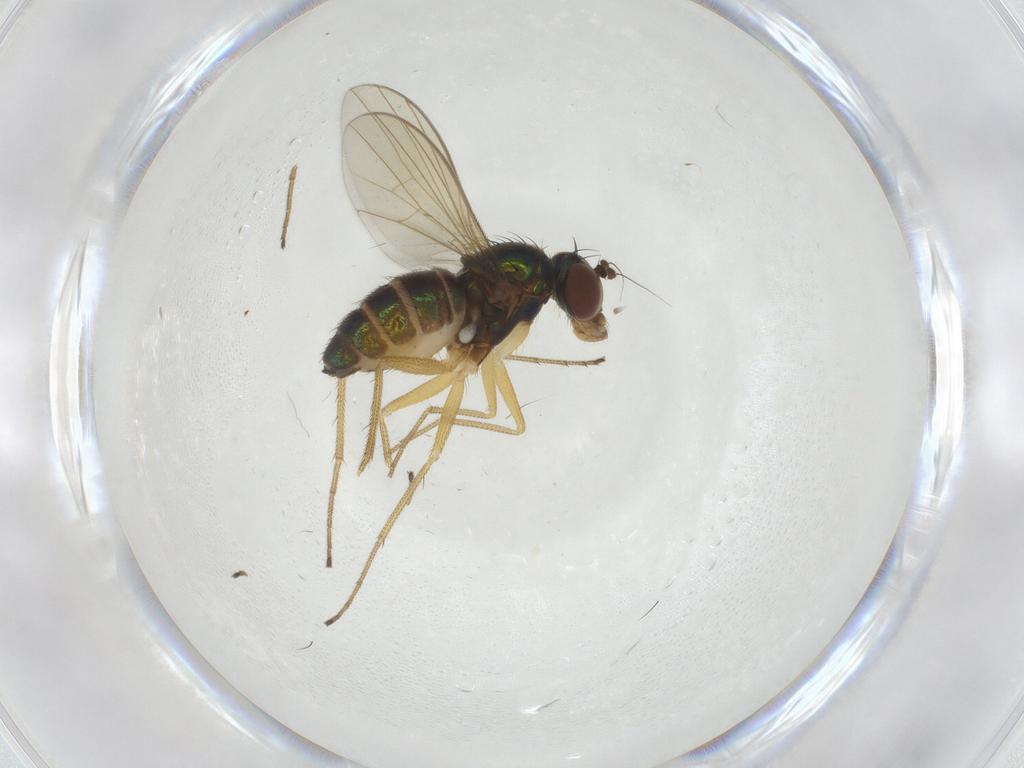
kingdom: Animalia
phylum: Arthropoda
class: Insecta
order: Diptera
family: Dolichopodidae
